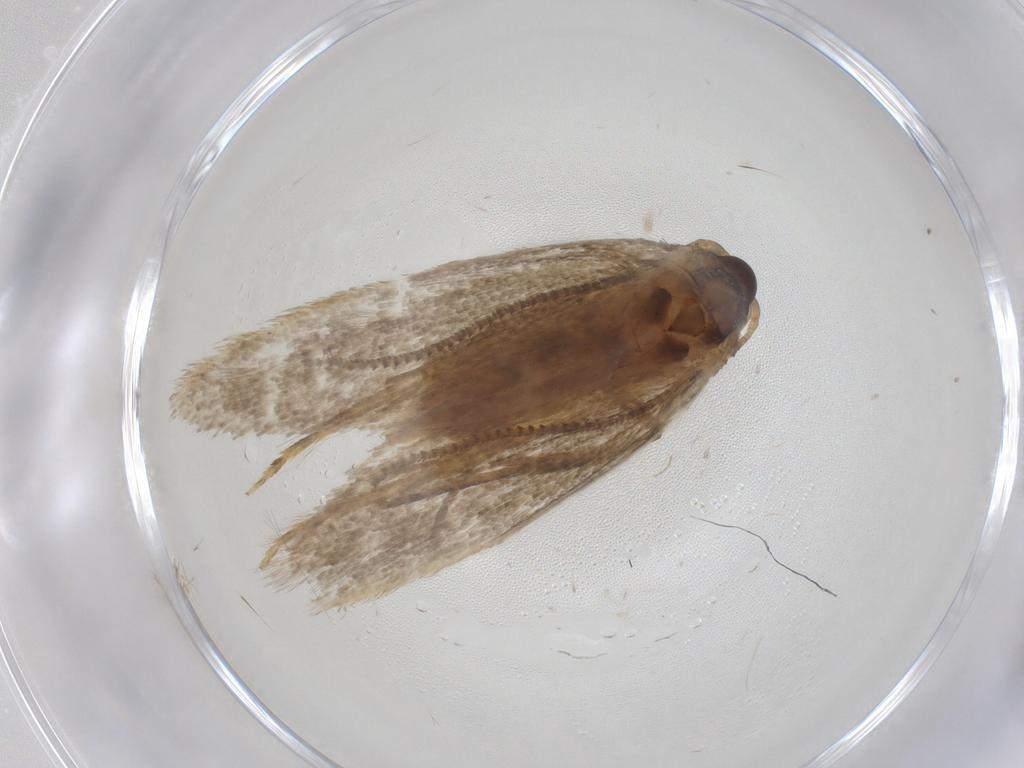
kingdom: Animalia
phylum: Arthropoda
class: Insecta
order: Lepidoptera
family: Autostichidae
